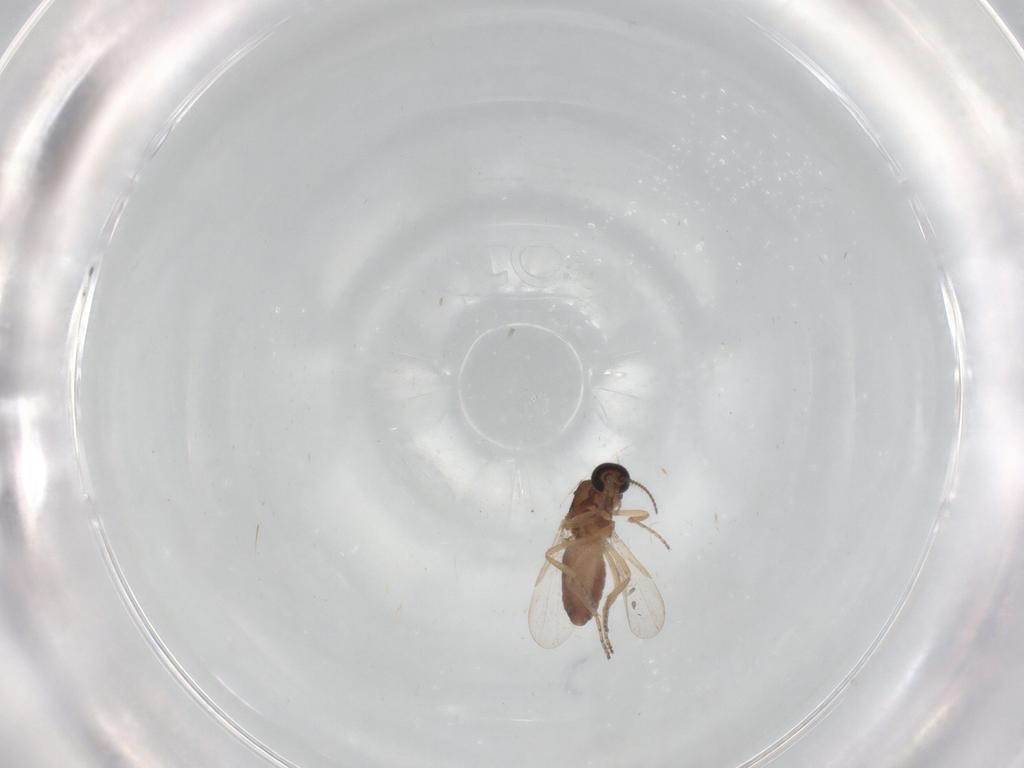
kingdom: Animalia
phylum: Arthropoda
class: Insecta
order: Diptera
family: Ceratopogonidae
